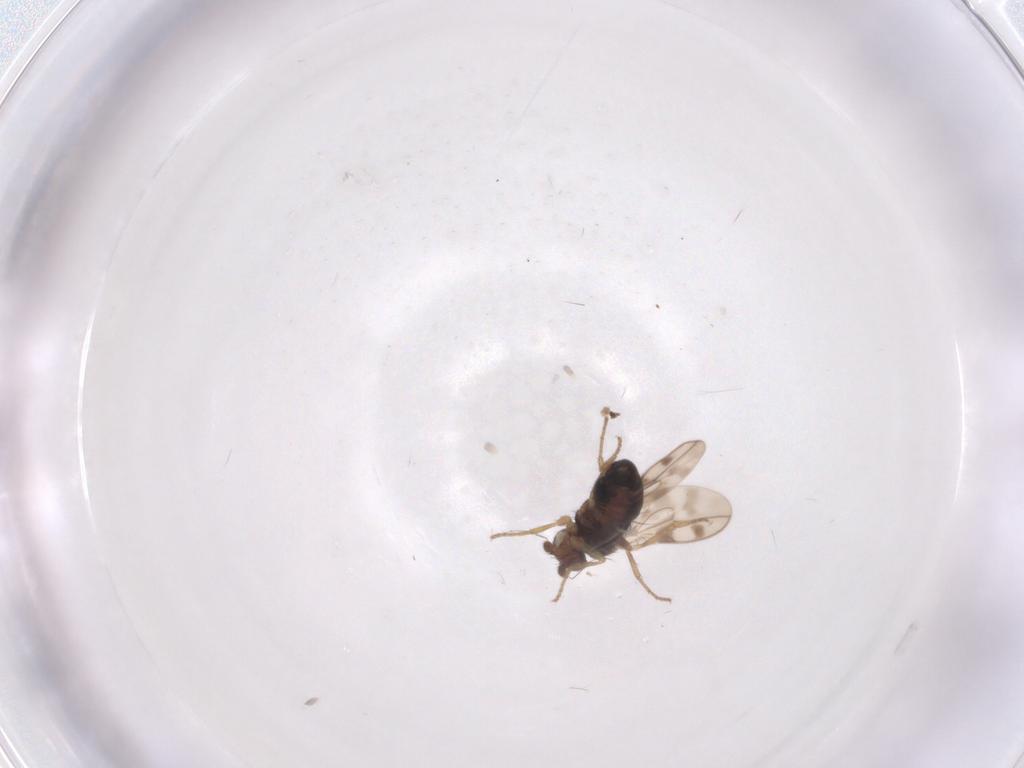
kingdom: Animalia
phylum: Arthropoda
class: Insecta
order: Diptera
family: Sphaeroceridae
